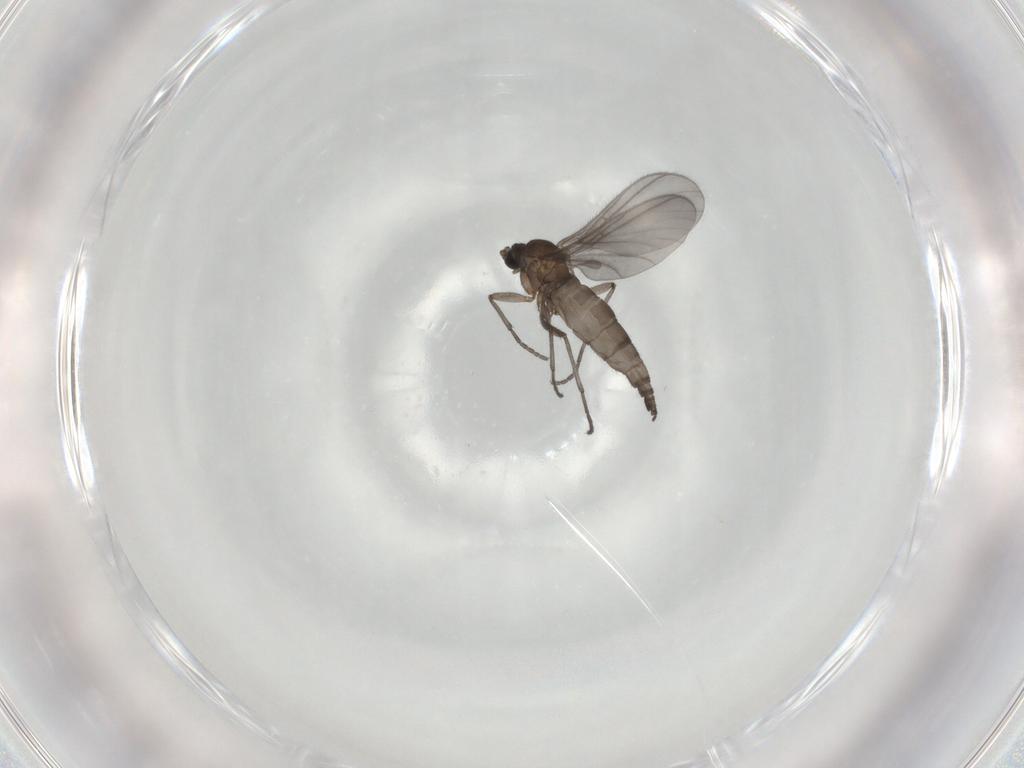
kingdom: Animalia
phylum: Arthropoda
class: Insecta
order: Diptera
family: Sciaridae
